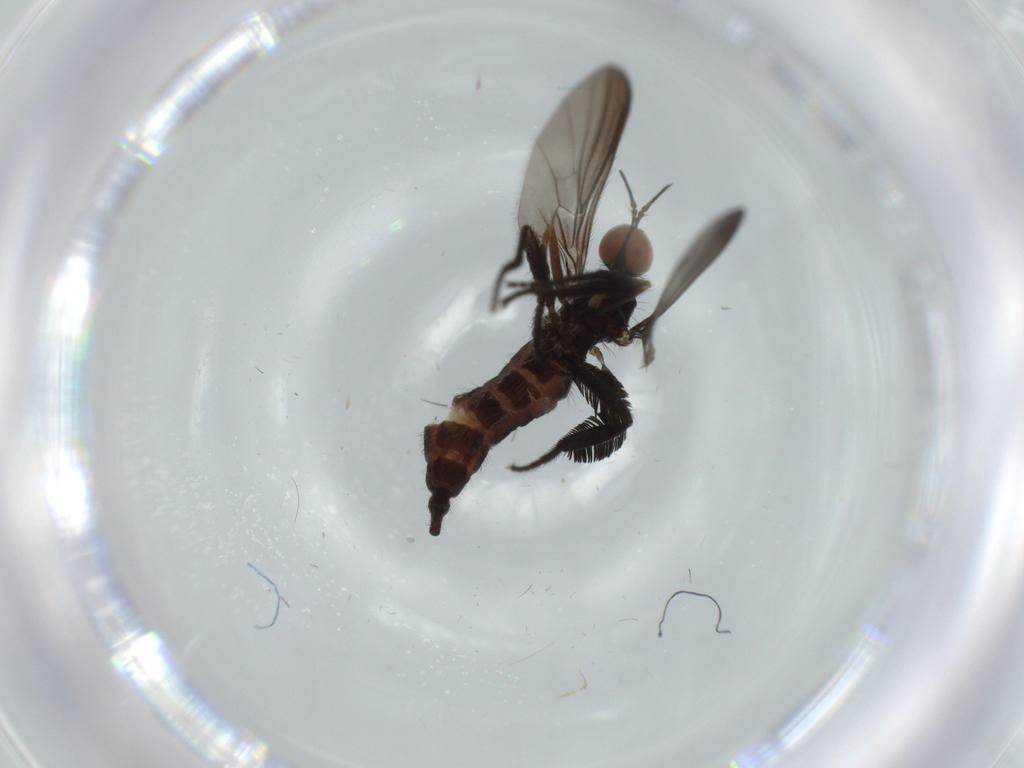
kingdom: Animalia
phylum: Arthropoda
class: Insecta
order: Diptera
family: Empididae
